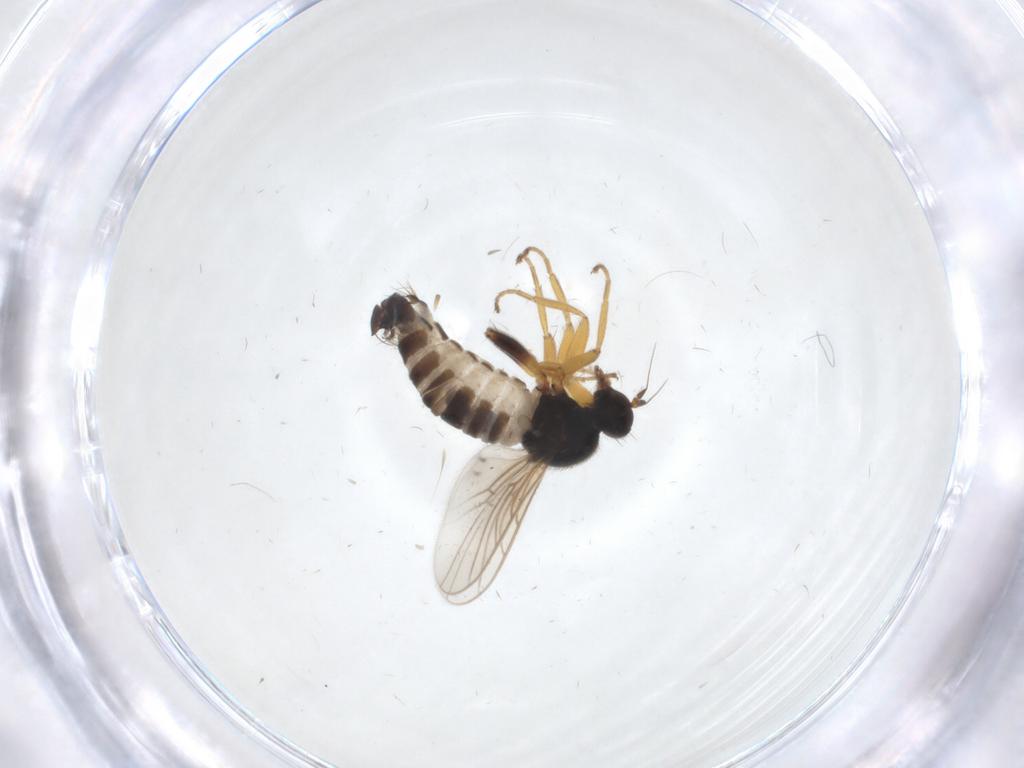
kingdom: Animalia
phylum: Arthropoda
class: Insecta
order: Diptera
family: Hybotidae
